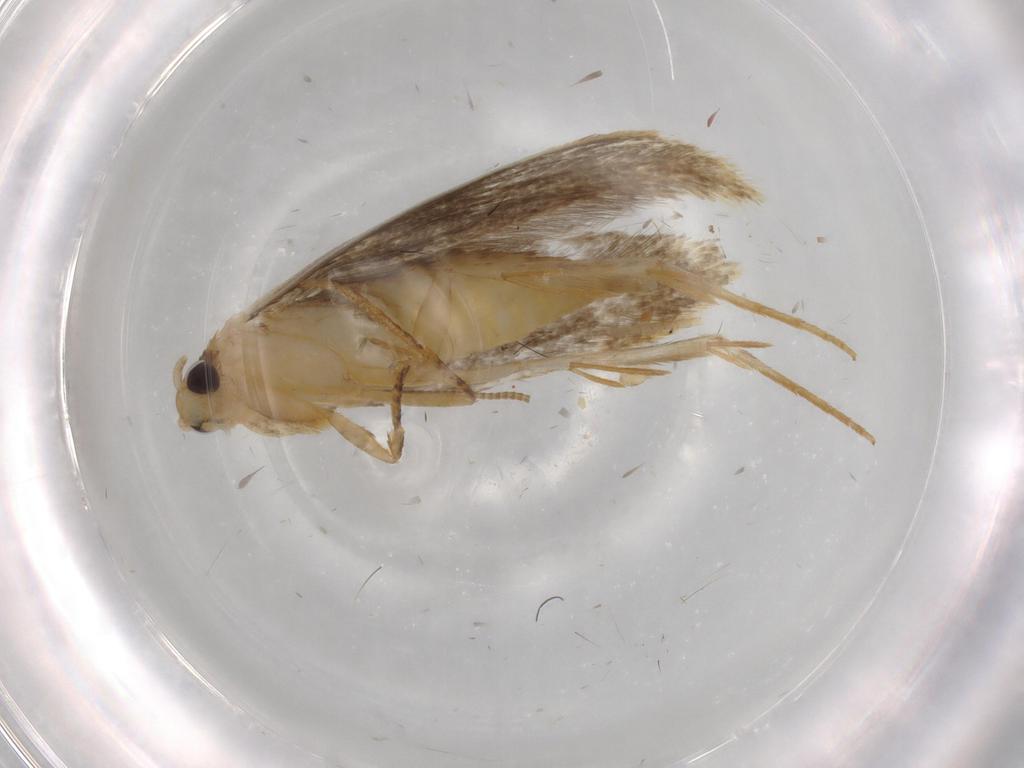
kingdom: Animalia
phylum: Arthropoda
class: Insecta
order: Lepidoptera
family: Tineidae
